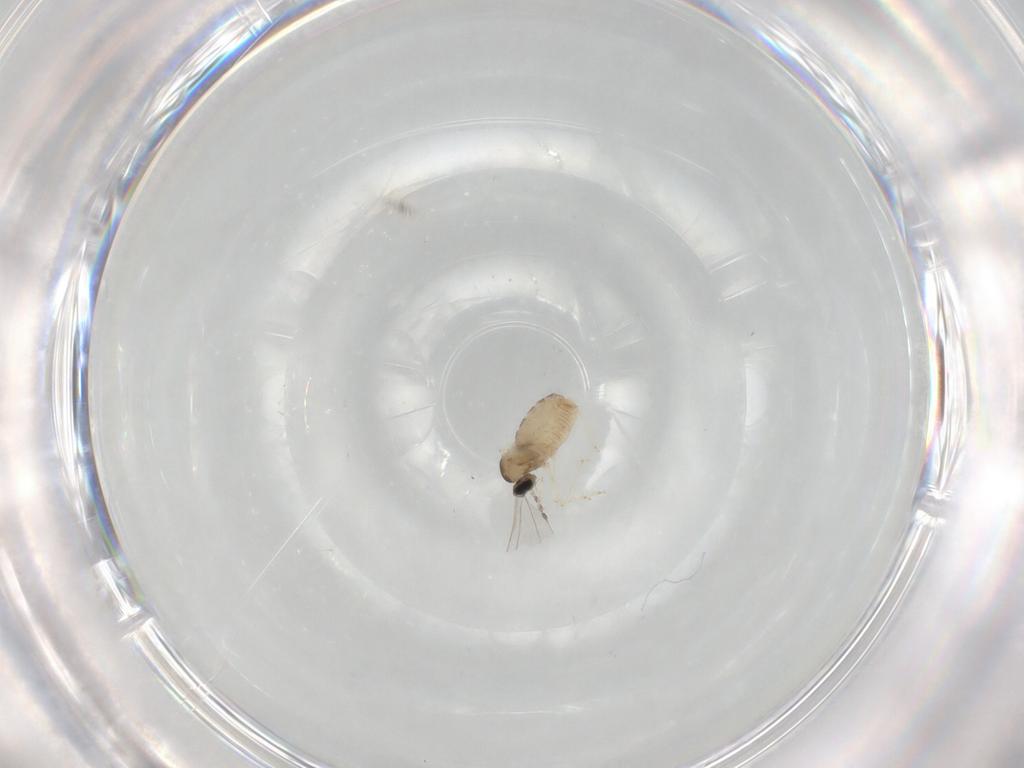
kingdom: Animalia
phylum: Arthropoda
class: Insecta
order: Diptera
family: Cecidomyiidae
